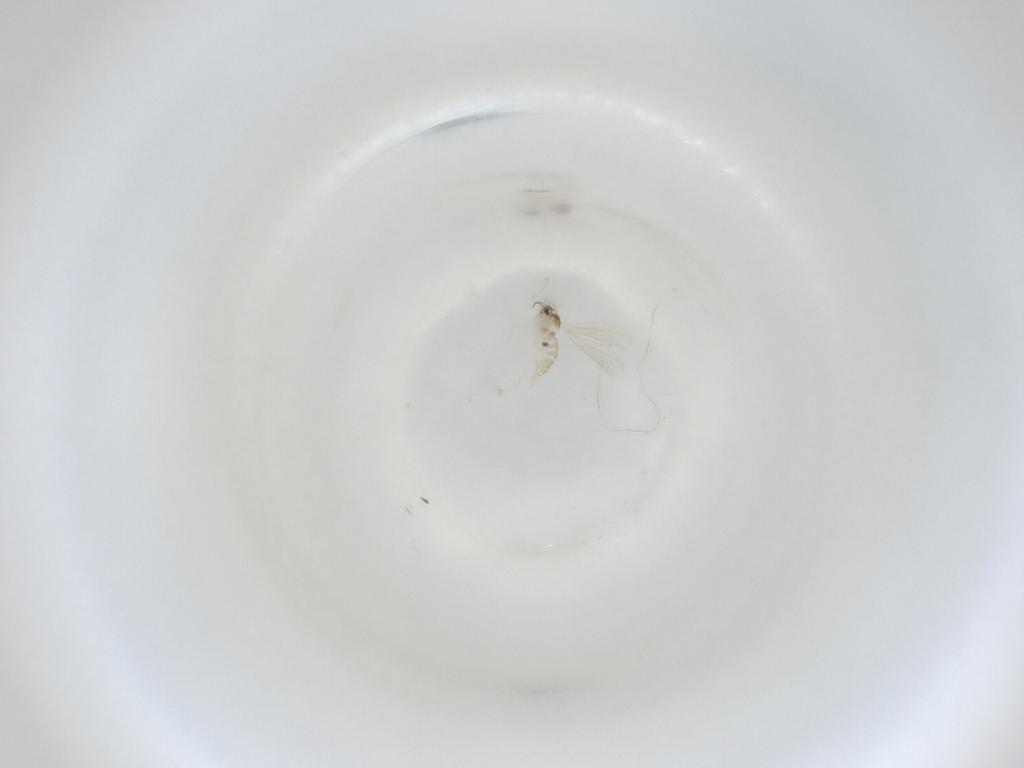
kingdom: Animalia
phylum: Arthropoda
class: Insecta
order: Diptera
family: Cecidomyiidae
